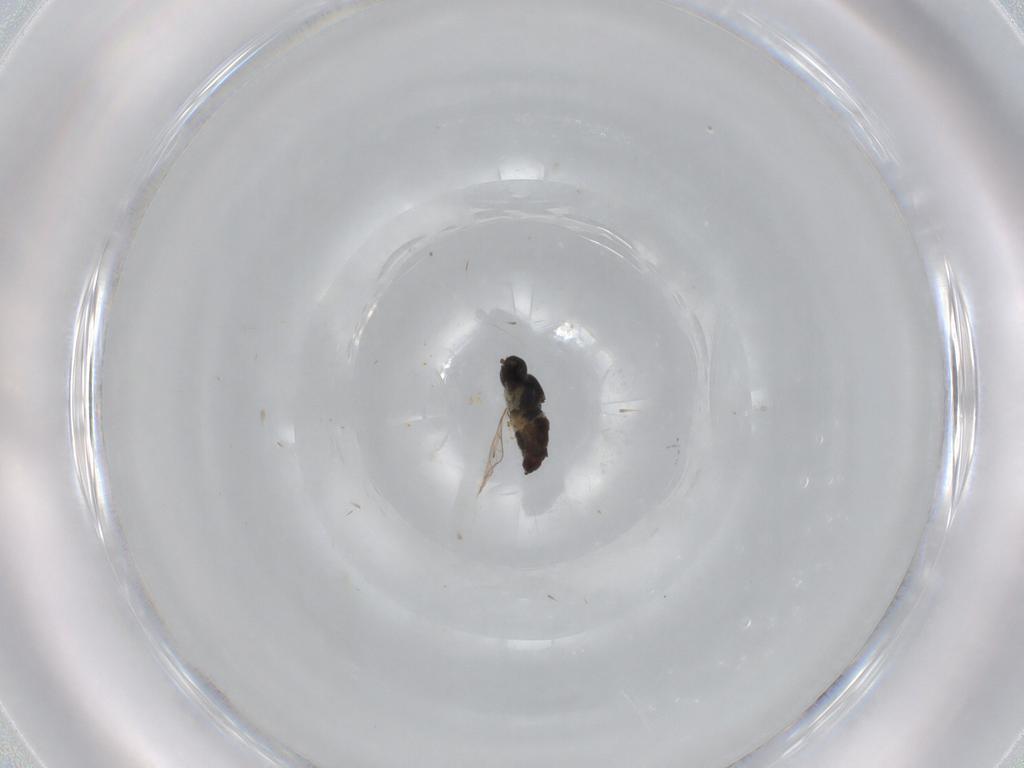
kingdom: Animalia
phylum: Arthropoda
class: Insecta
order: Diptera
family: Hybotidae
